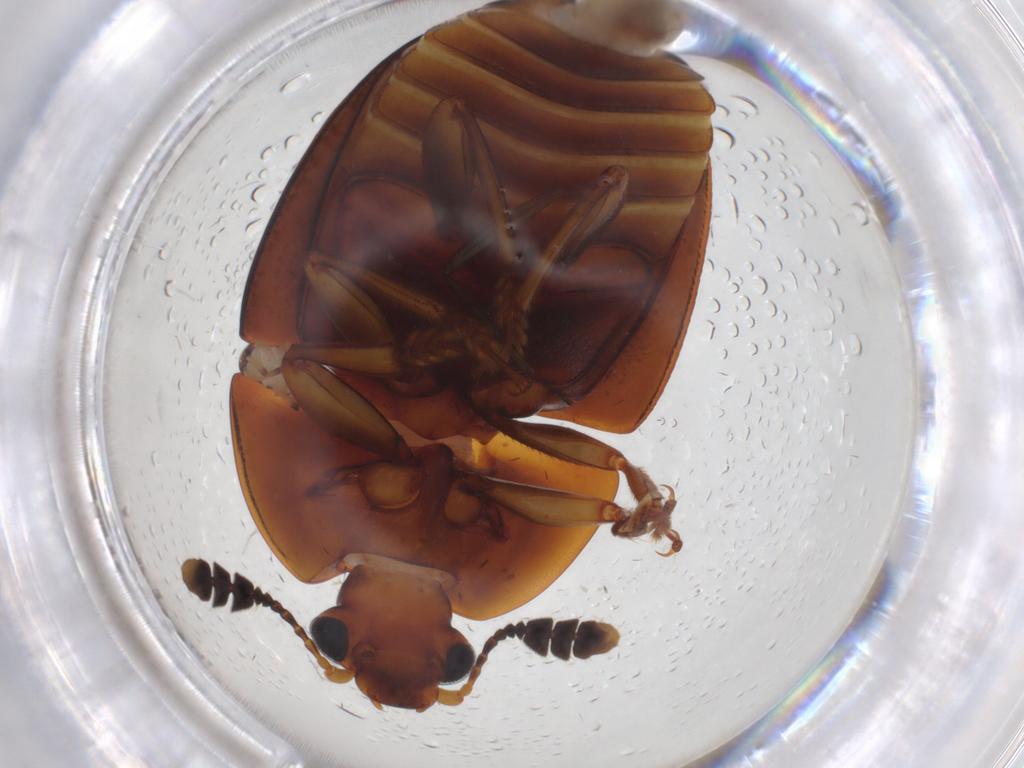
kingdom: Animalia
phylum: Arthropoda
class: Insecta
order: Coleoptera
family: Nitidulidae
